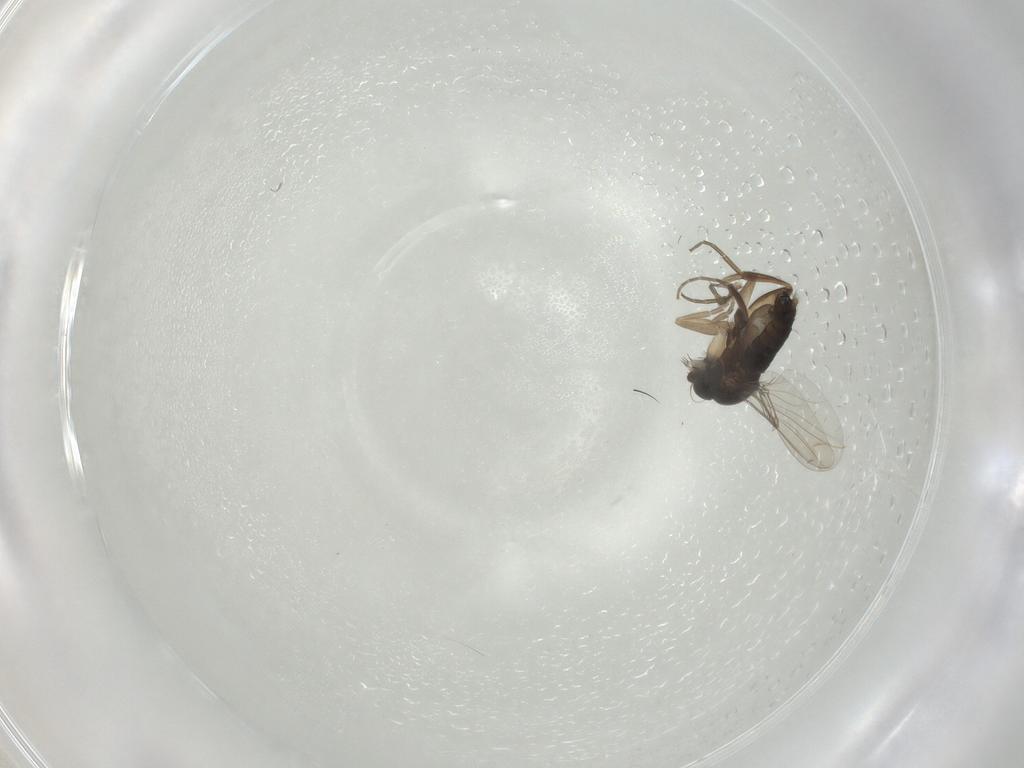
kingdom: Animalia
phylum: Arthropoda
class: Insecta
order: Diptera
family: Phoridae
